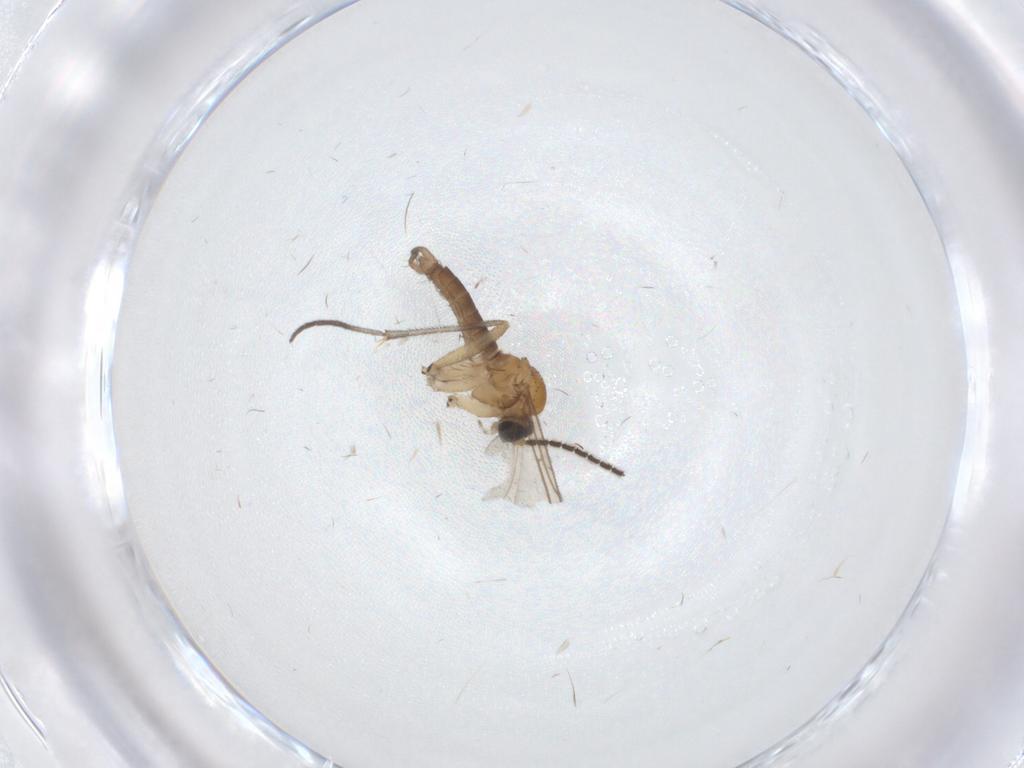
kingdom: Animalia
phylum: Arthropoda
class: Insecta
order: Diptera
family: Sciaridae
